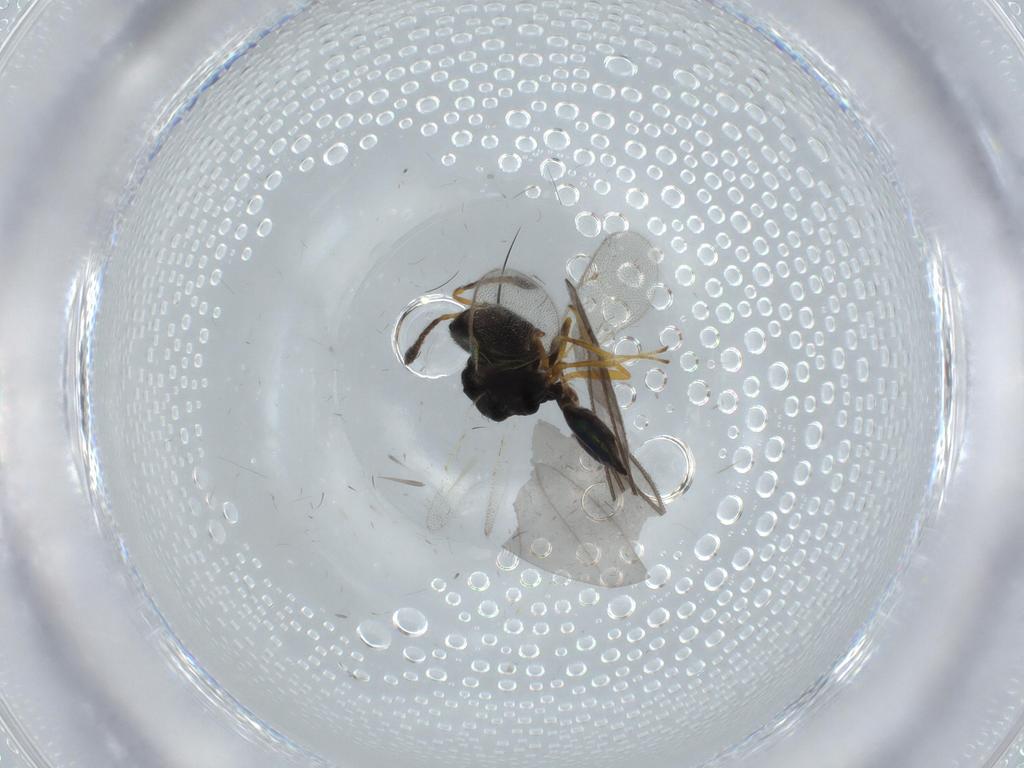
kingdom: Animalia
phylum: Arthropoda
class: Insecta
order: Hymenoptera
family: Pteromalidae
